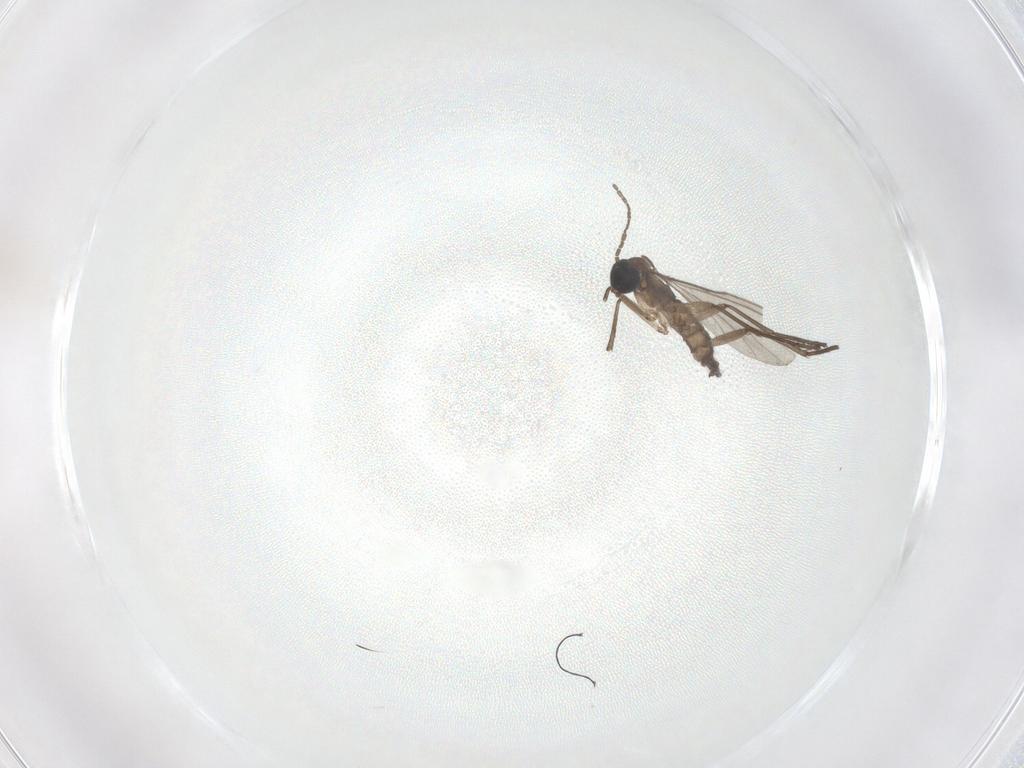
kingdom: Animalia
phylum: Arthropoda
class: Insecta
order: Diptera
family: Sciaridae
